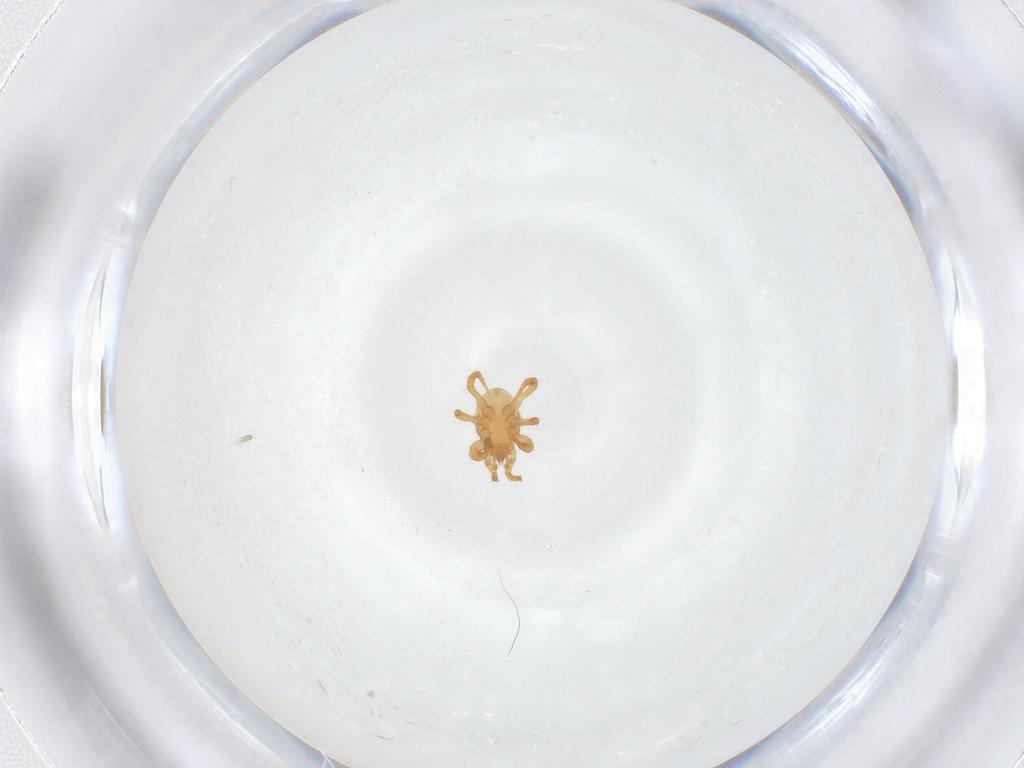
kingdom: Animalia
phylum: Arthropoda
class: Arachnida
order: Mesostigmata
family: Parasitidae
